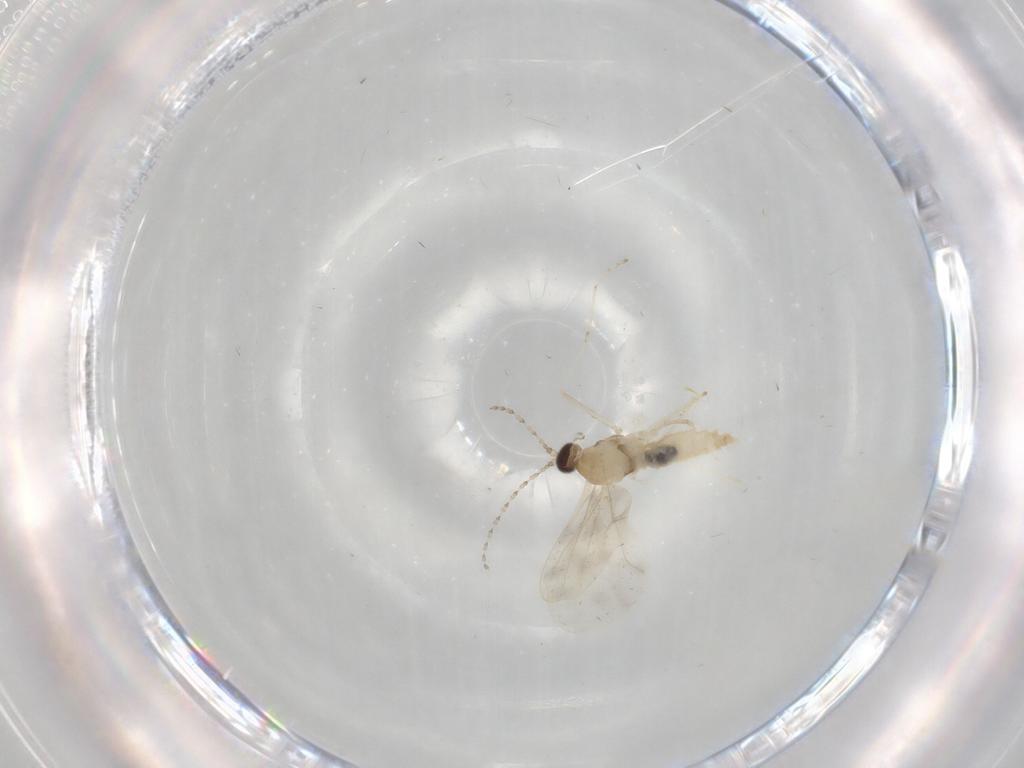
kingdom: Animalia
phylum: Arthropoda
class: Insecta
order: Diptera
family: Cecidomyiidae
